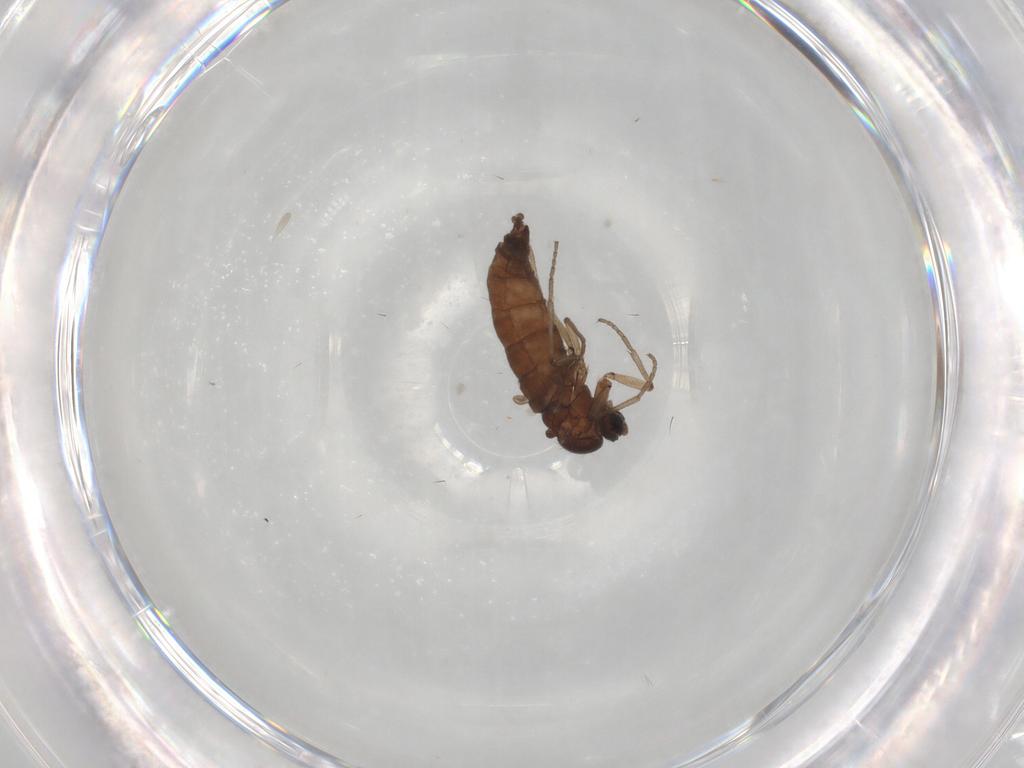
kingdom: Animalia
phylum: Arthropoda
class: Insecta
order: Diptera
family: Sciaridae
